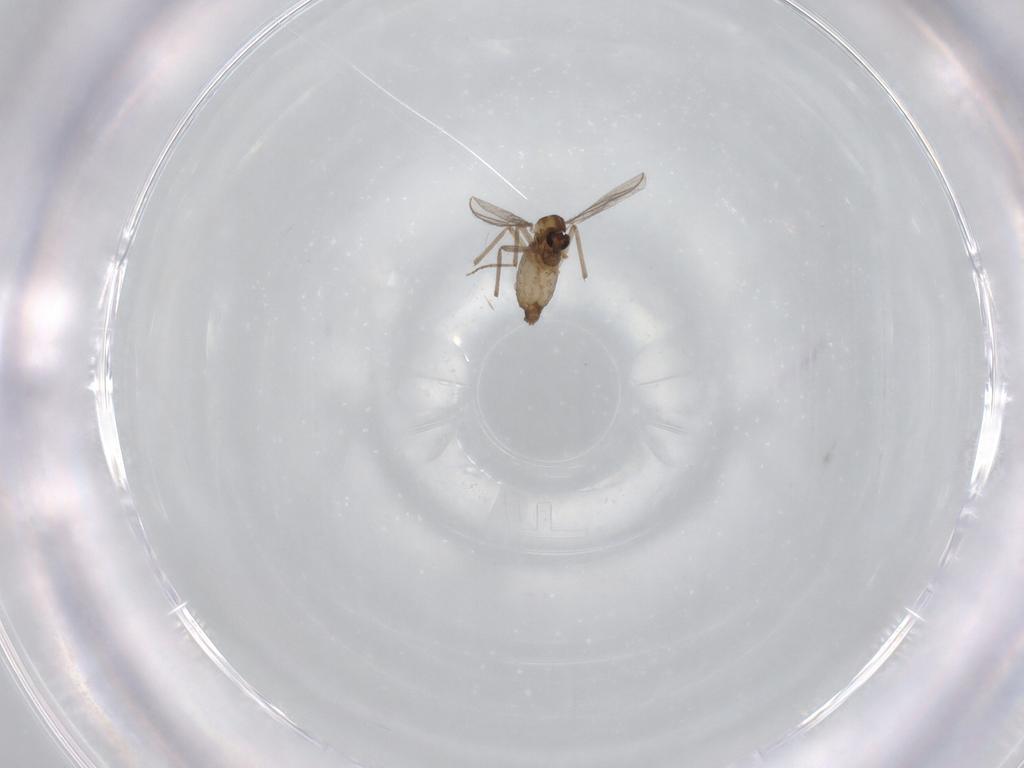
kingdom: Animalia
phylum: Arthropoda
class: Insecta
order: Diptera
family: Chironomidae
